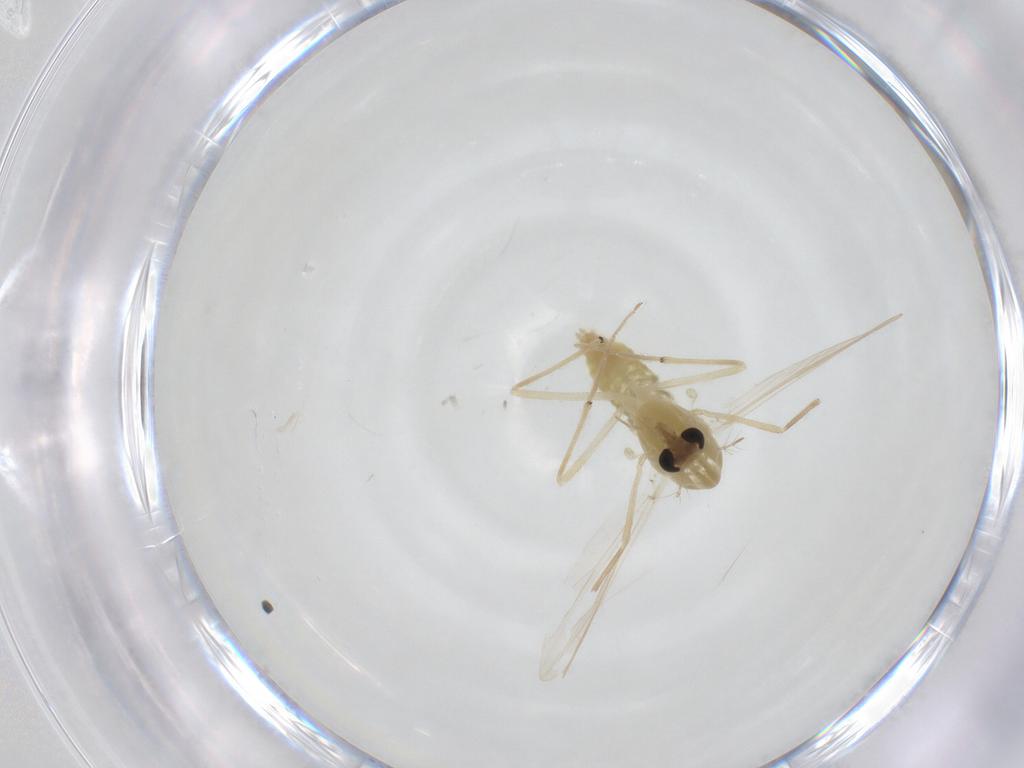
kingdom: Animalia
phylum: Arthropoda
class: Insecta
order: Diptera
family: Chironomidae
